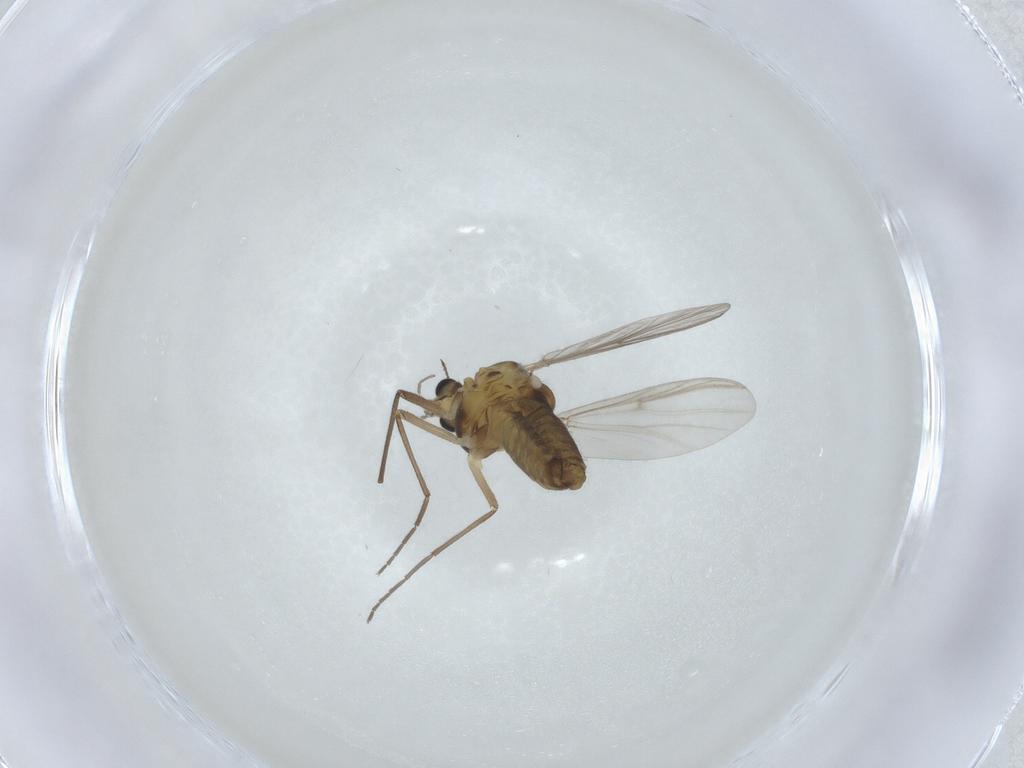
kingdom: Animalia
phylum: Arthropoda
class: Insecta
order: Diptera
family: Chironomidae
